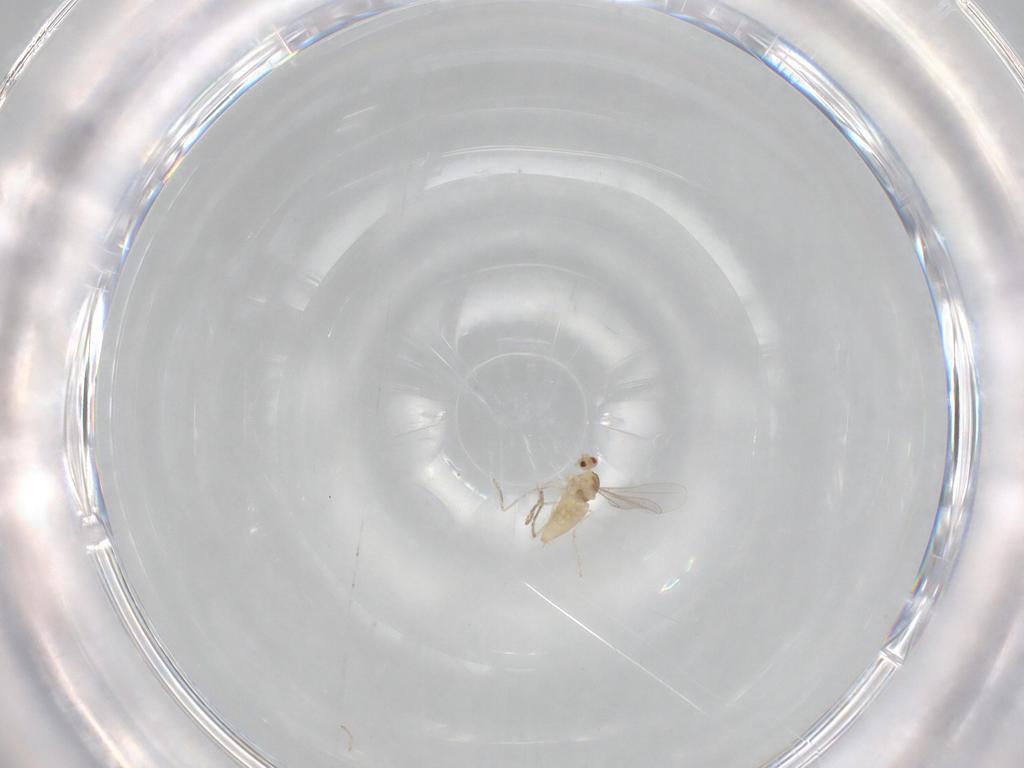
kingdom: Animalia
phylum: Arthropoda
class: Insecta
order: Diptera
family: Cecidomyiidae
